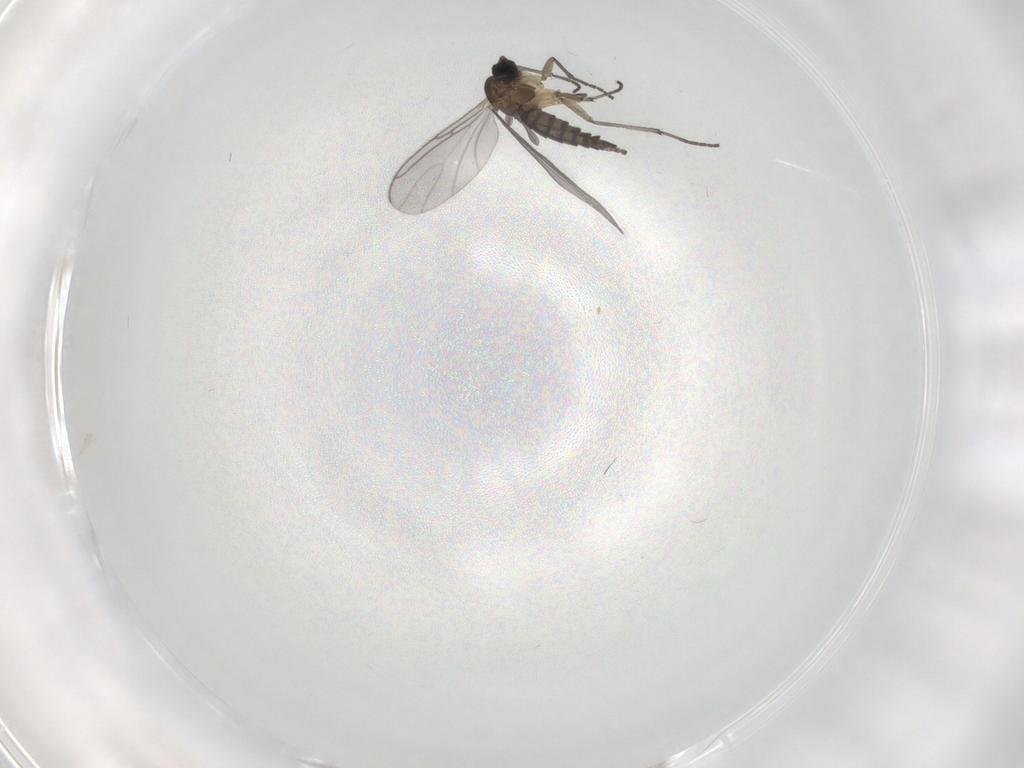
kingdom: Animalia
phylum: Arthropoda
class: Insecta
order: Diptera
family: Sciaridae
